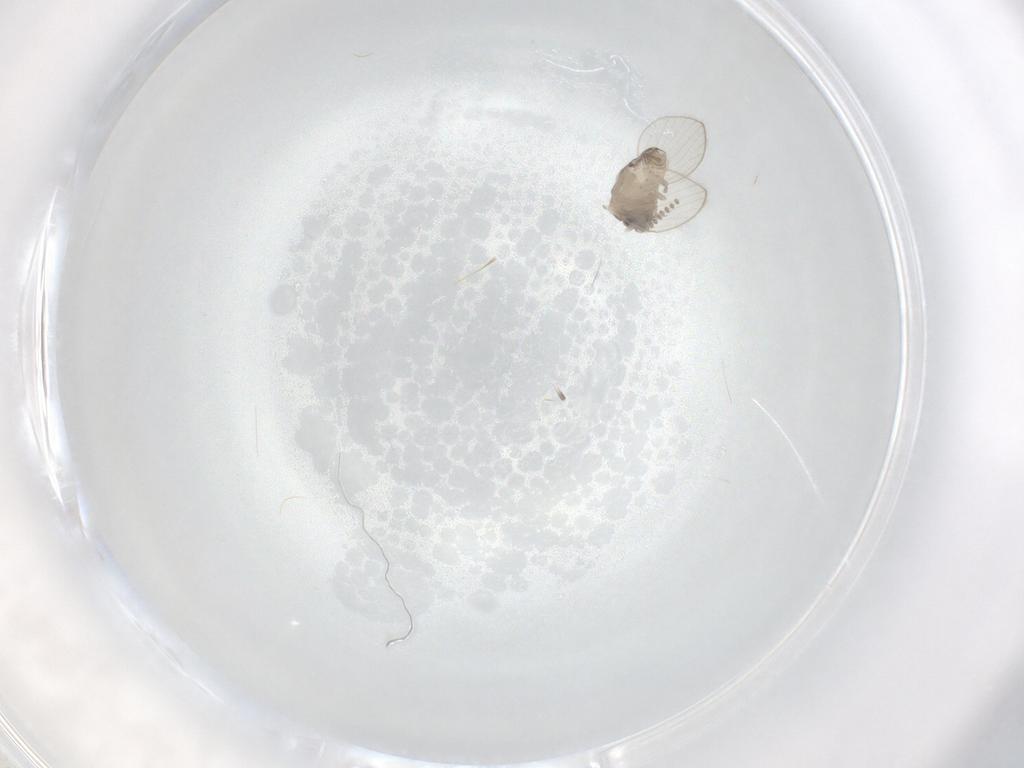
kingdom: Animalia
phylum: Arthropoda
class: Insecta
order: Diptera
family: Psychodidae
